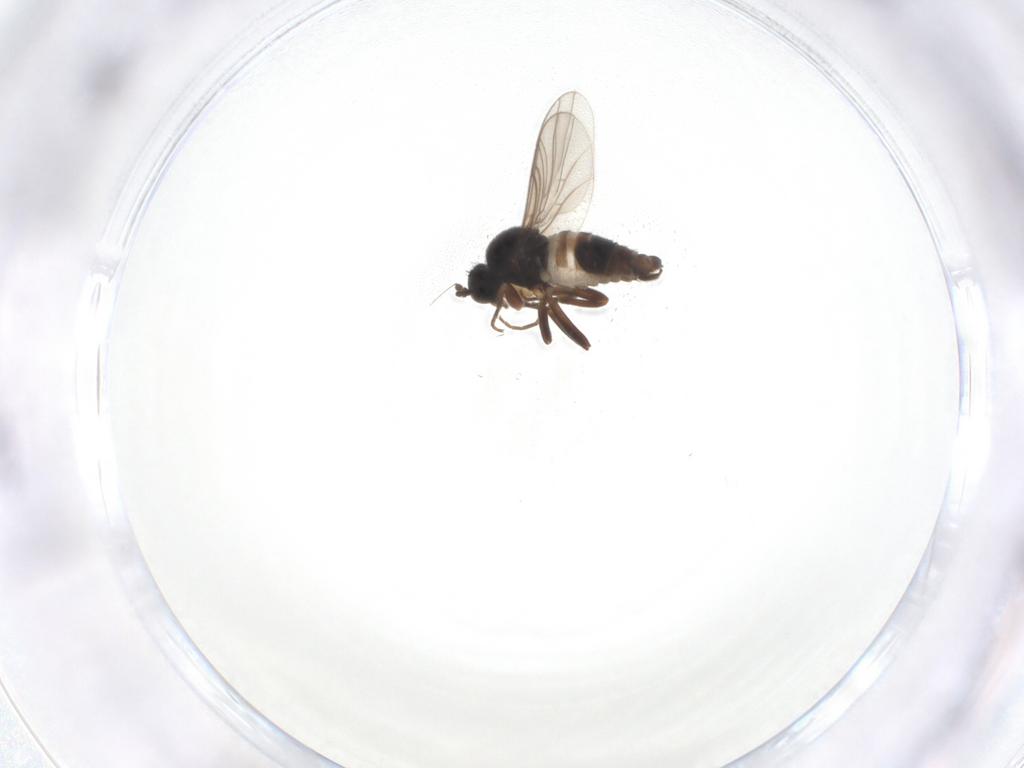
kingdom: Animalia
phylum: Arthropoda
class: Insecta
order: Diptera
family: Hybotidae
